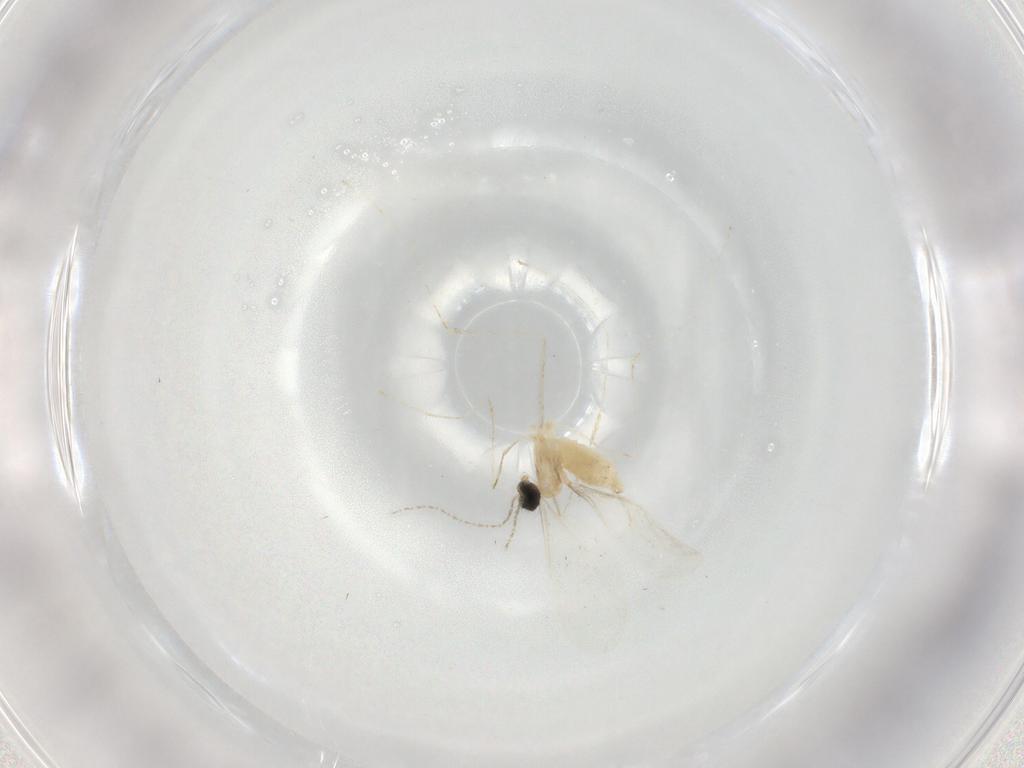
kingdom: Animalia
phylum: Arthropoda
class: Insecta
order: Diptera
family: Cecidomyiidae
